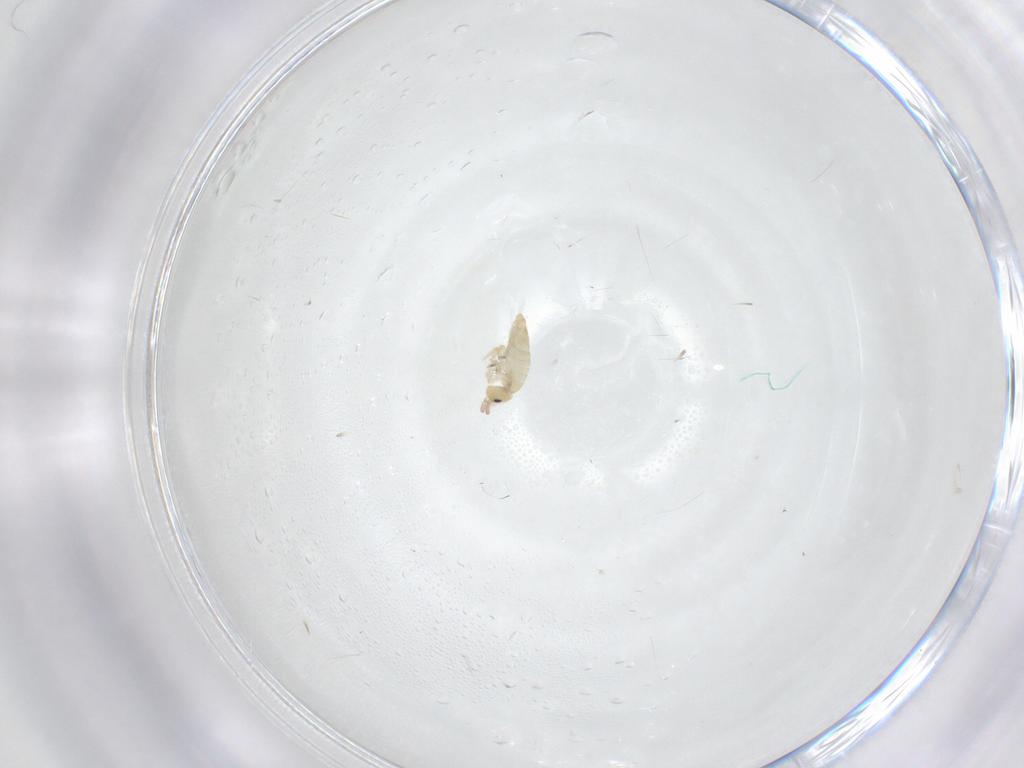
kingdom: Animalia
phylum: Arthropoda
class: Collembola
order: Entomobryomorpha
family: Entomobryidae
